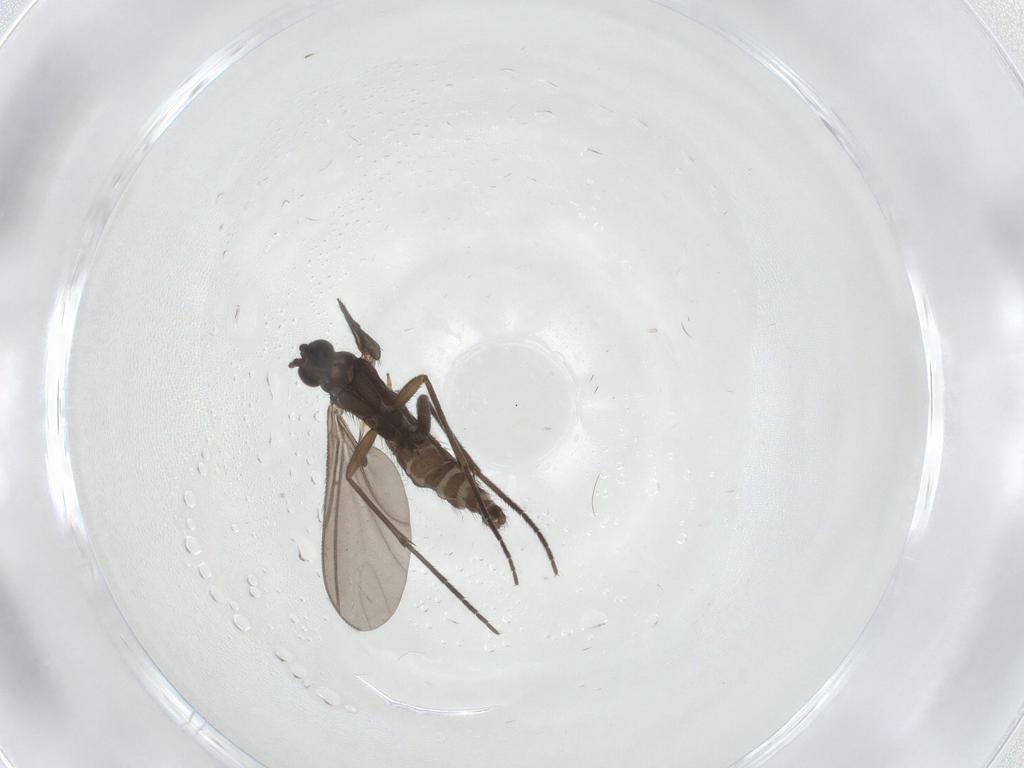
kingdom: Animalia
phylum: Arthropoda
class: Insecta
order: Diptera
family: Sciaridae
